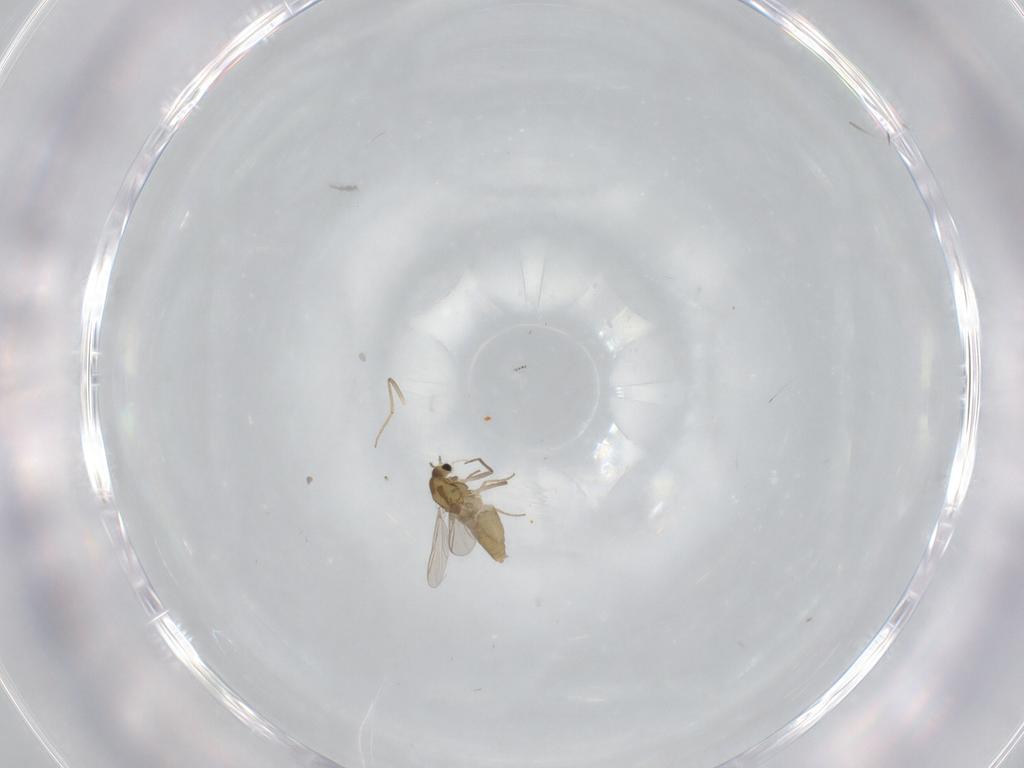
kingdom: Animalia
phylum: Arthropoda
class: Insecta
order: Diptera
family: Chironomidae
